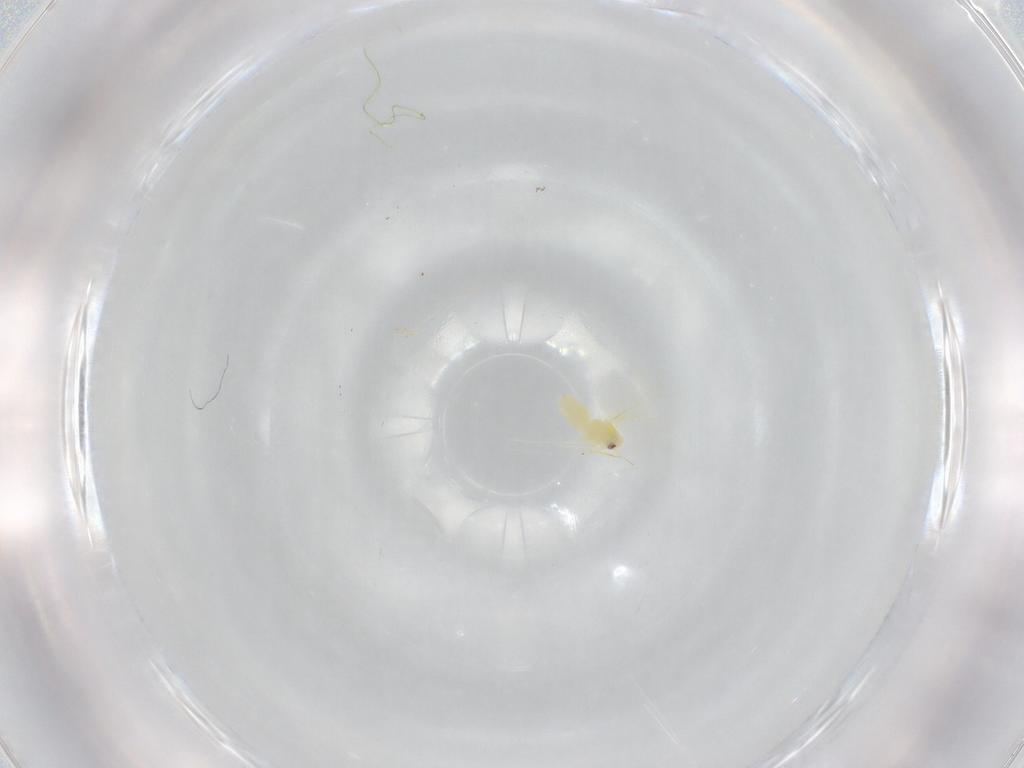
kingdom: Animalia
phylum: Arthropoda
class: Insecta
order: Hemiptera
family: Aleyrodidae
